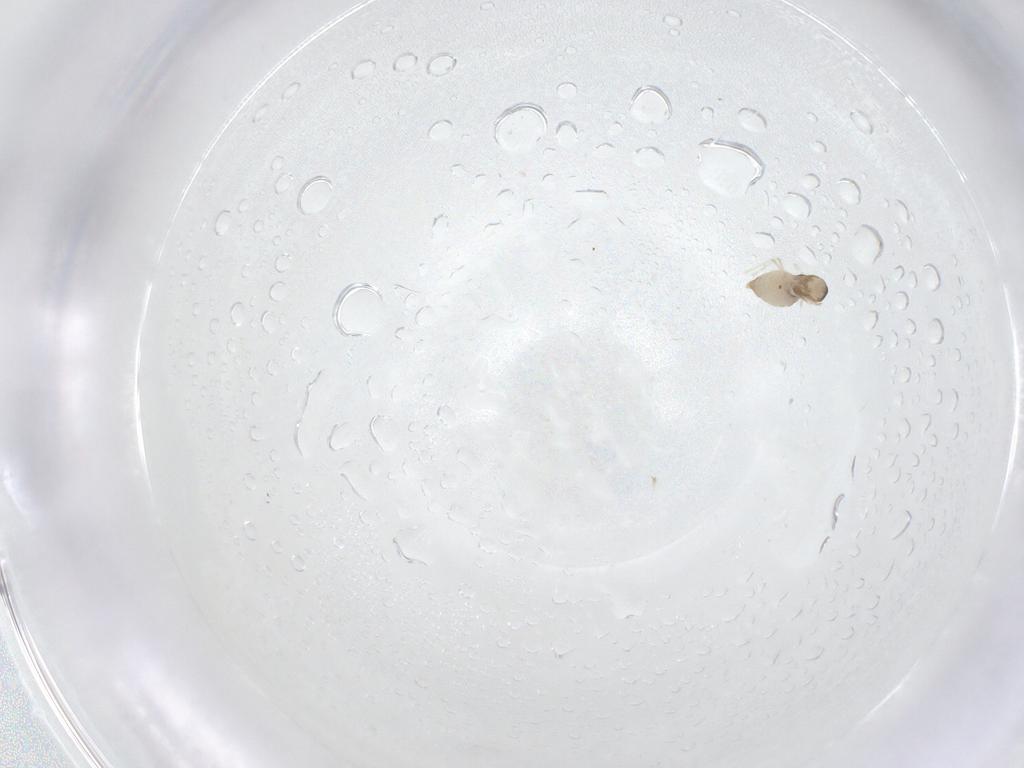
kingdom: Animalia
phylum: Arthropoda
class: Insecta
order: Diptera
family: Cecidomyiidae
